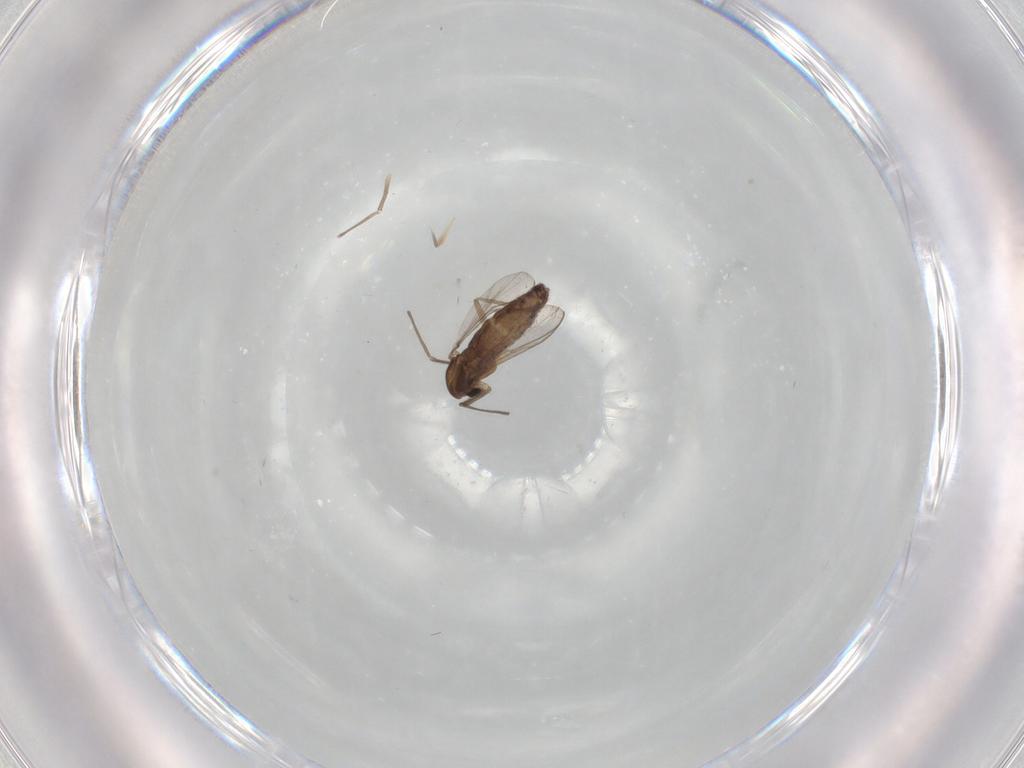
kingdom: Animalia
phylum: Arthropoda
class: Insecta
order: Diptera
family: Chironomidae
